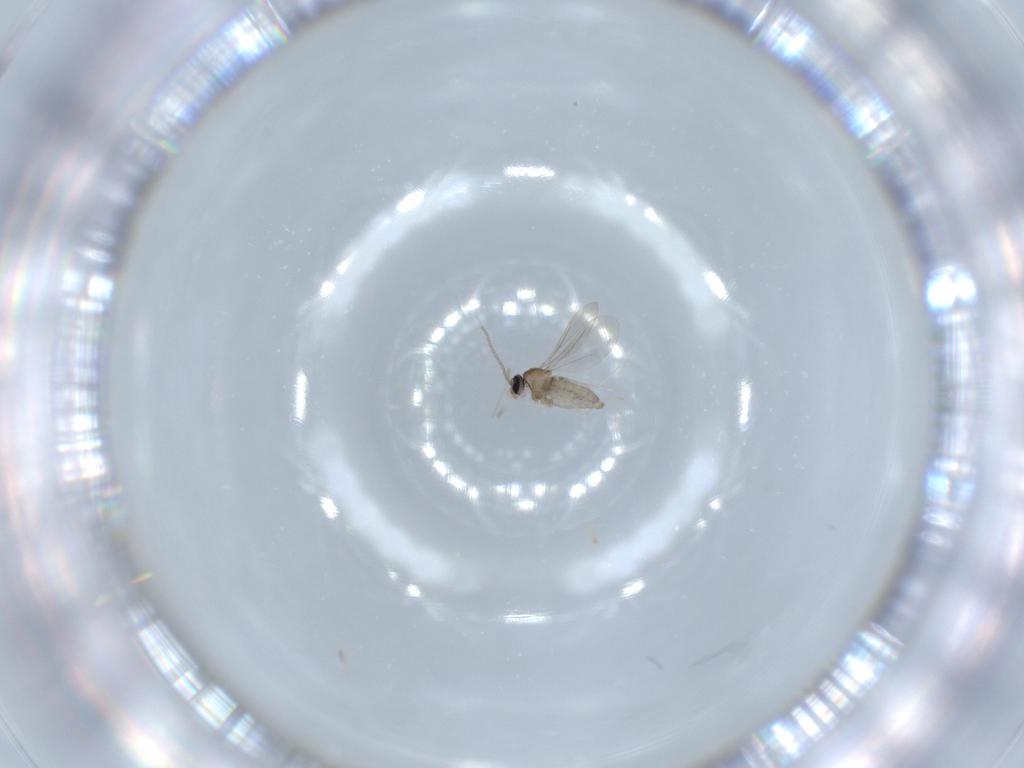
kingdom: Animalia
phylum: Arthropoda
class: Insecta
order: Diptera
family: Cecidomyiidae
